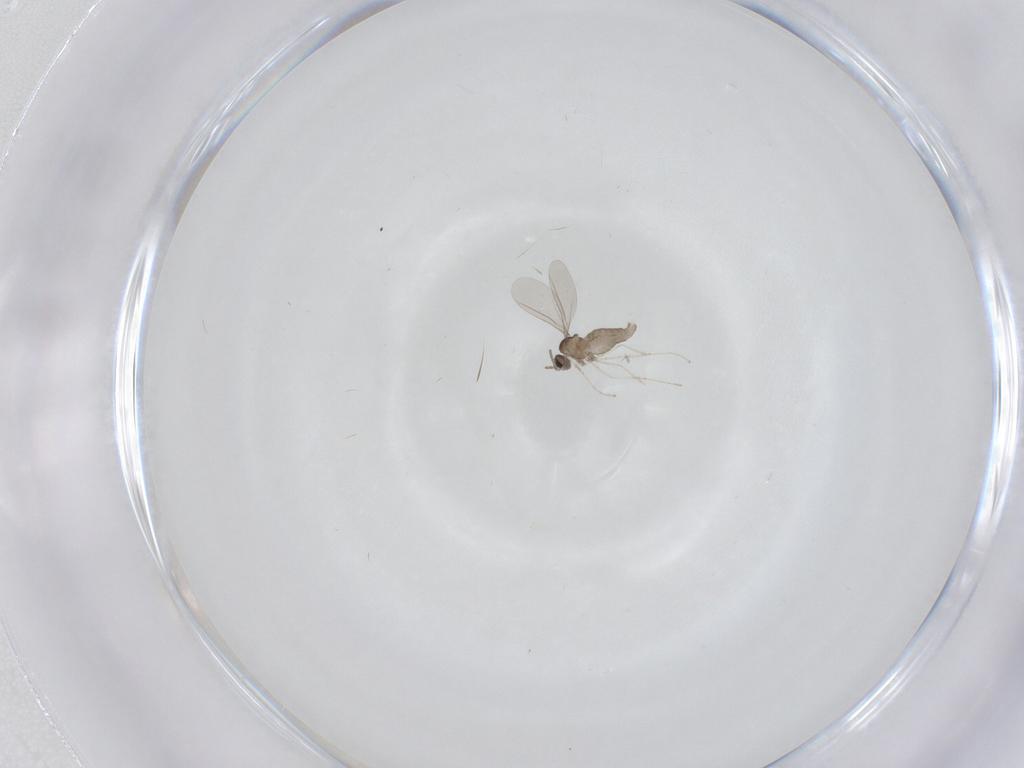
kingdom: Animalia
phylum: Arthropoda
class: Insecta
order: Diptera
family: Cecidomyiidae
